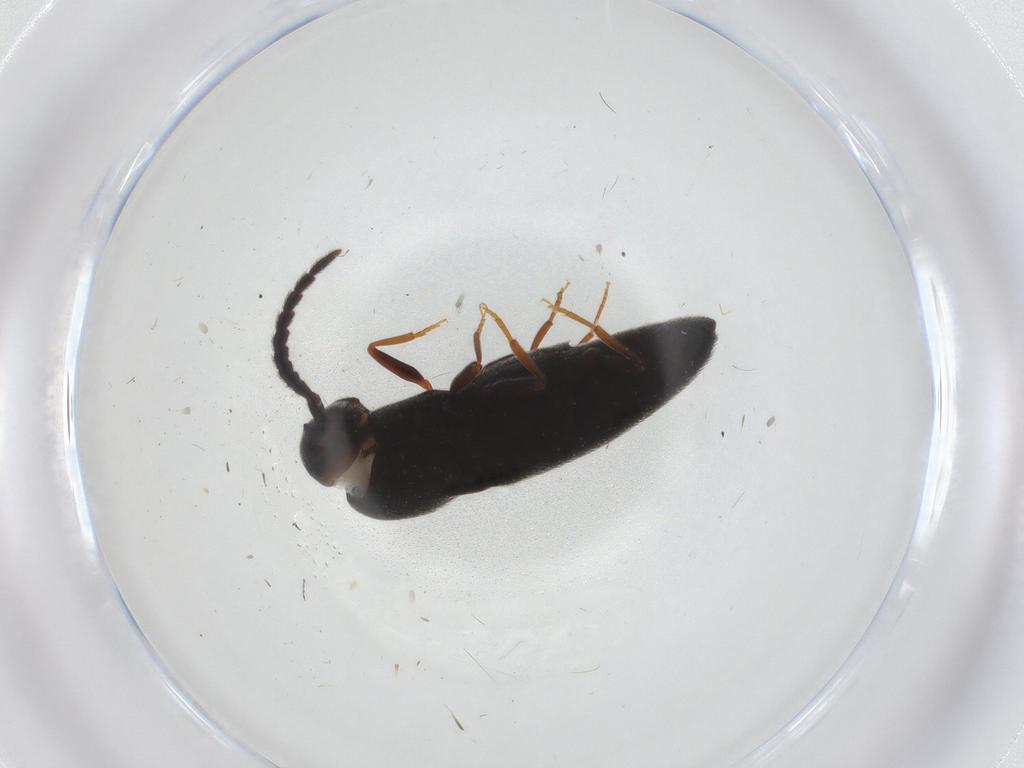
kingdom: Animalia
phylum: Arthropoda
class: Insecta
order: Coleoptera
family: Eucnemidae
